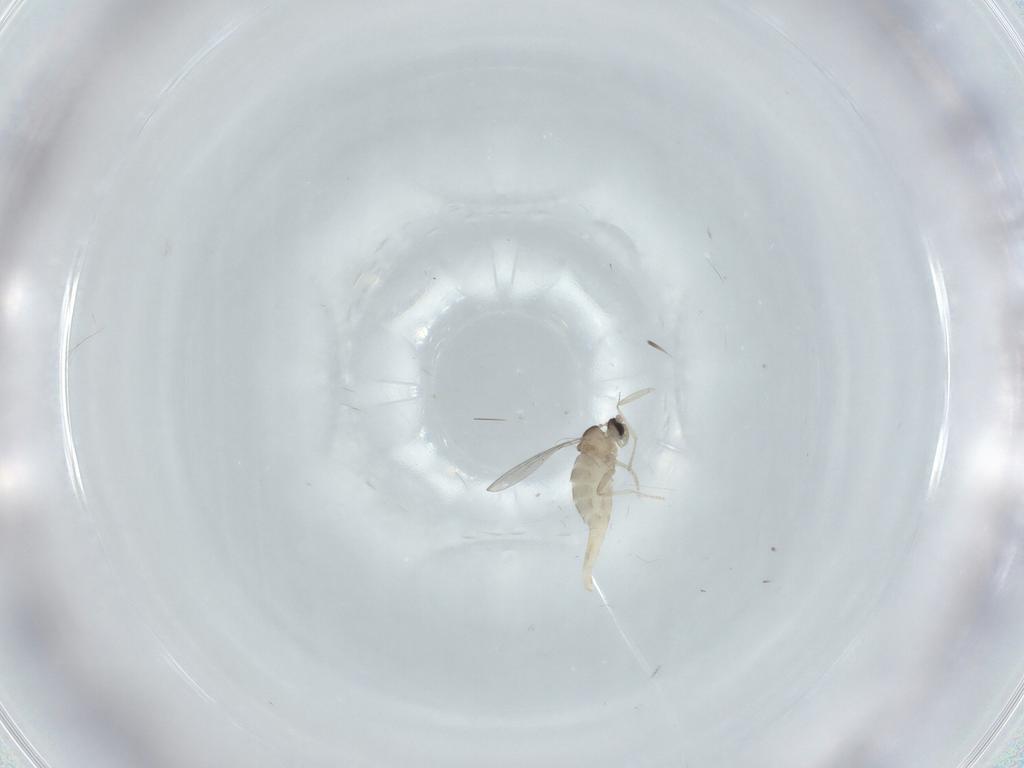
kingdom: Animalia
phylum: Arthropoda
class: Insecta
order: Diptera
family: Cecidomyiidae
